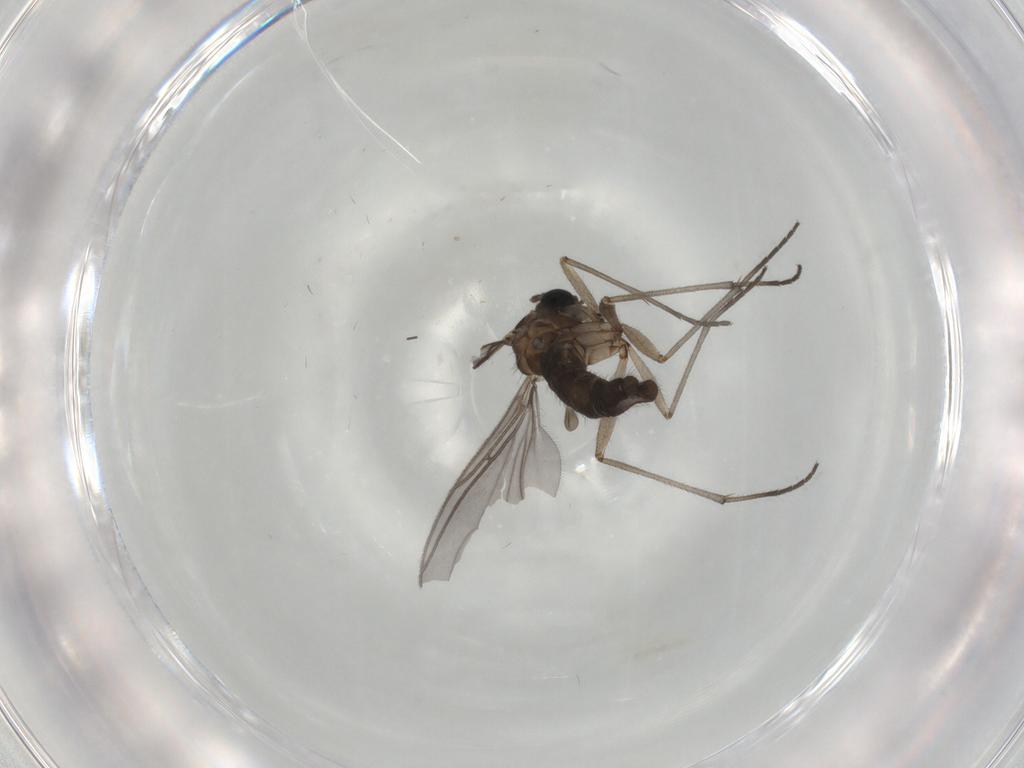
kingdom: Animalia
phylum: Arthropoda
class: Insecta
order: Diptera
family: Sciaridae
